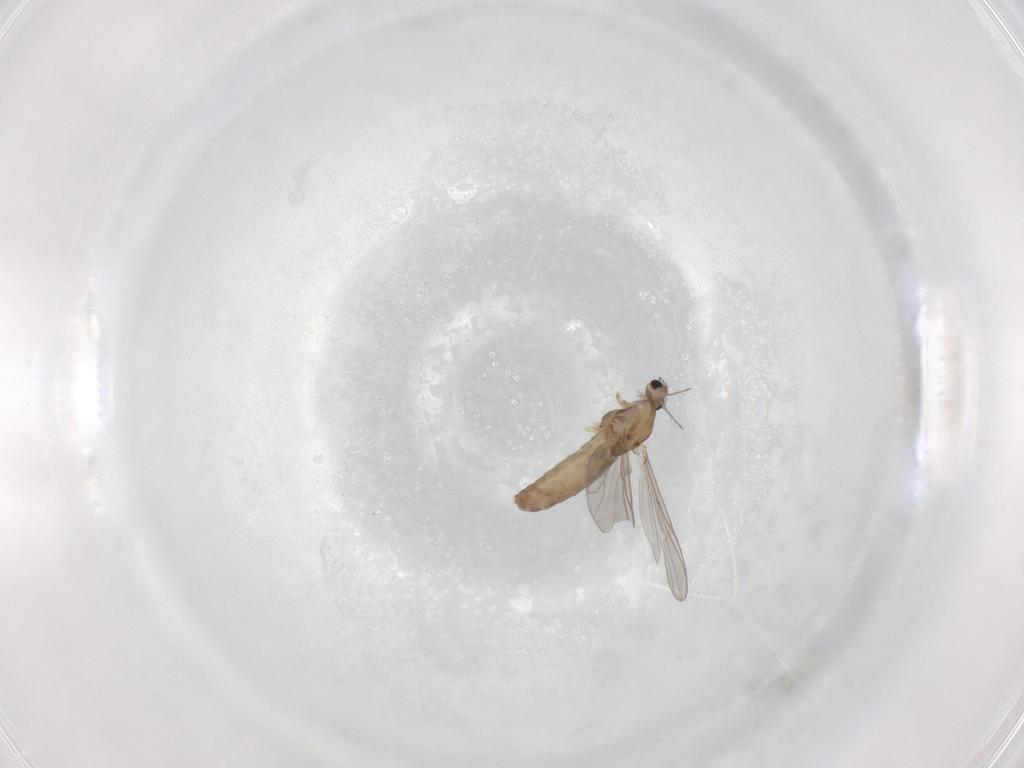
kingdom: Animalia
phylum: Arthropoda
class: Insecta
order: Diptera
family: Chironomidae
